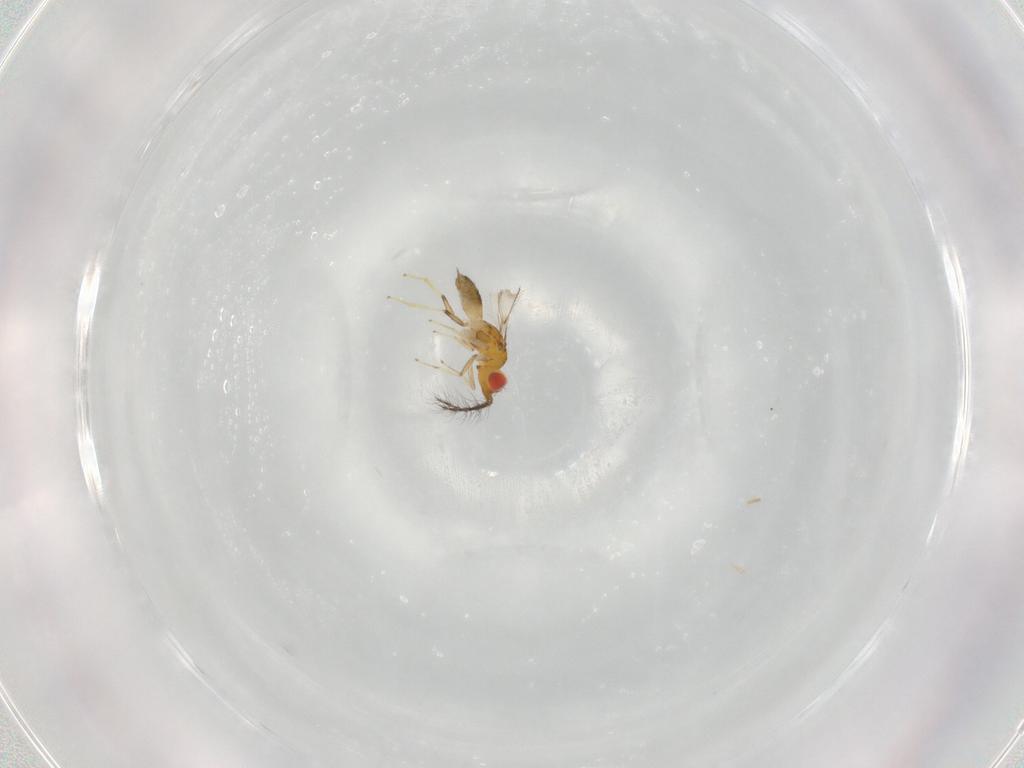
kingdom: Animalia
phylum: Arthropoda
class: Insecta
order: Hymenoptera
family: Eulophidae
